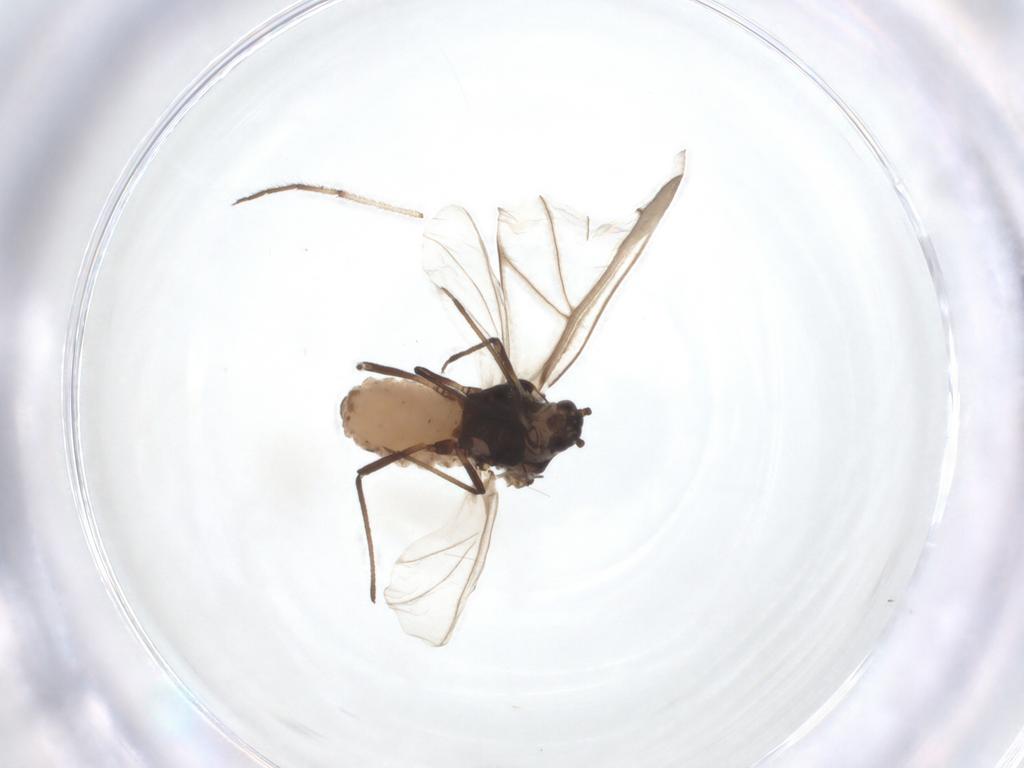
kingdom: Animalia
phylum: Arthropoda
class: Insecta
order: Hemiptera
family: Aphididae
